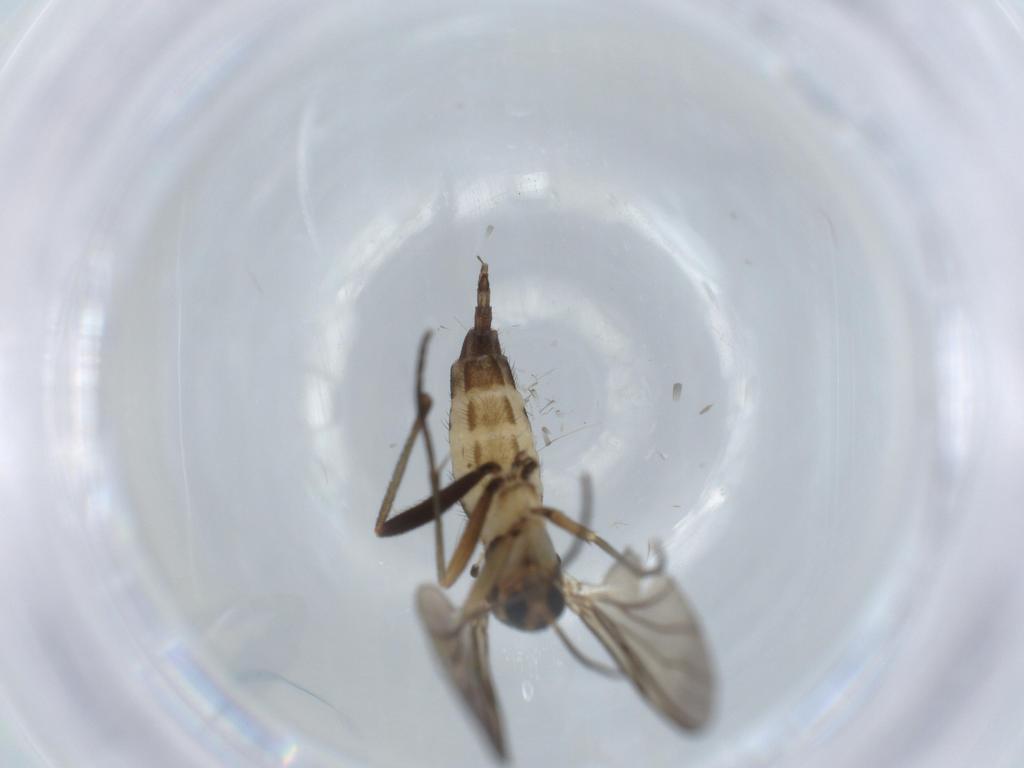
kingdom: Animalia
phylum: Arthropoda
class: Insecta
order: Diptera
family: Sciaridae
